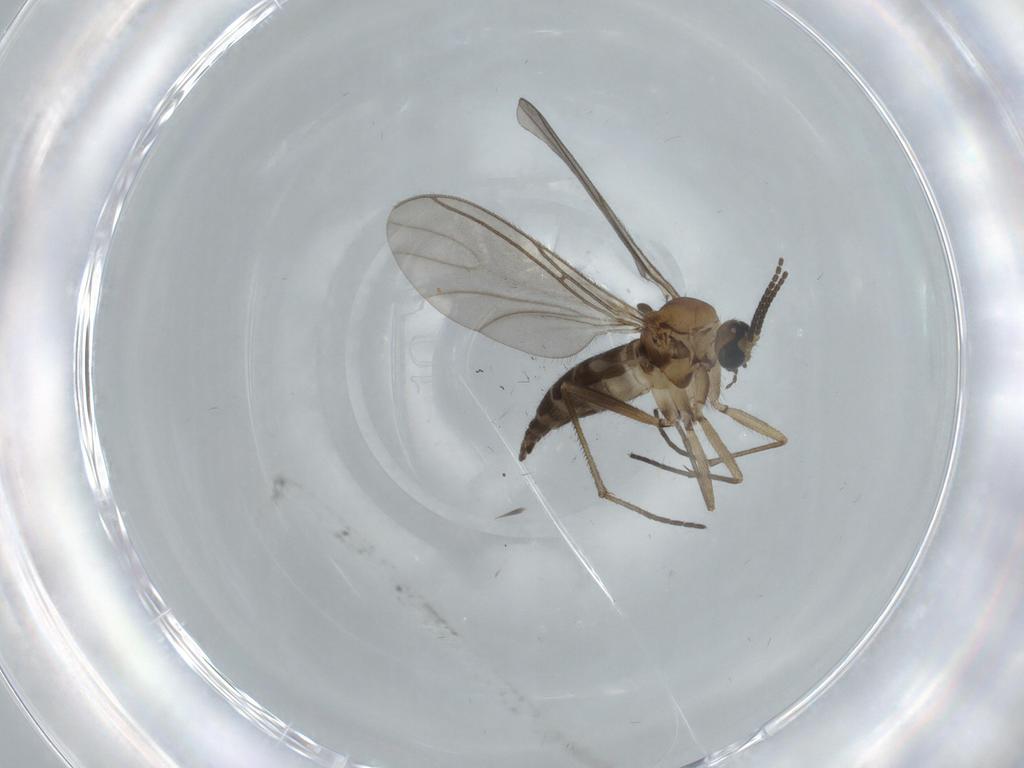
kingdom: Animalia
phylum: Arthropoda
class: Insecta
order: Diptera
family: Sciaridae
